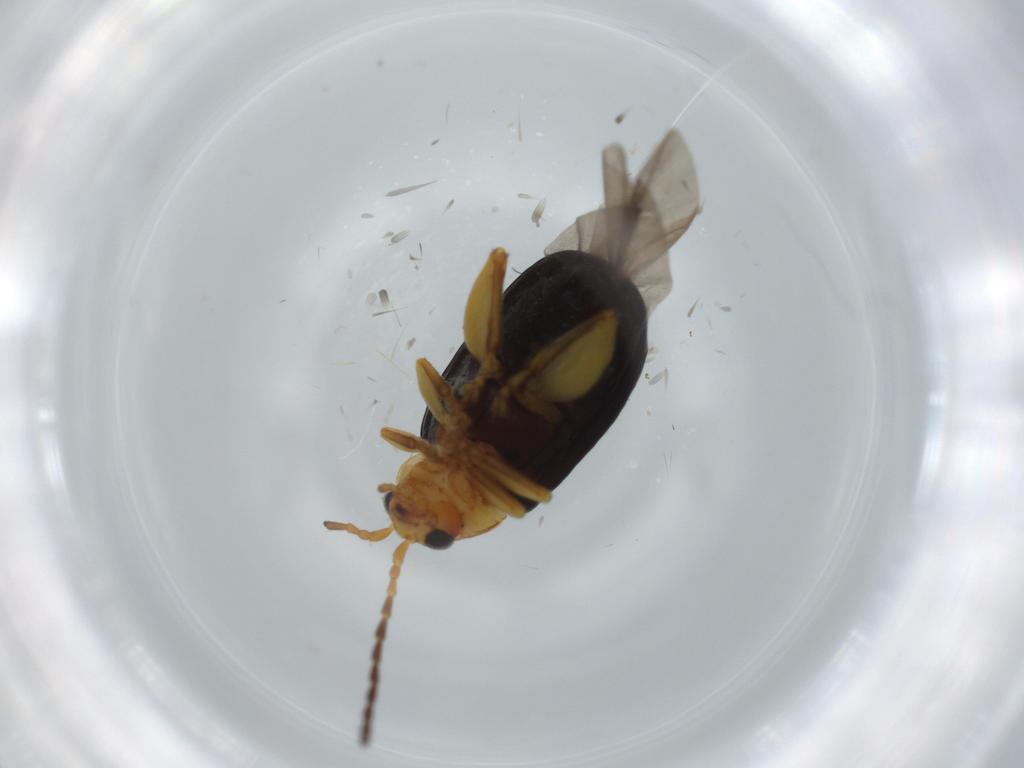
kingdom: Animalia
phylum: Arthropoda
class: Insecta
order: Coleoptera
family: Chrysomelidae
